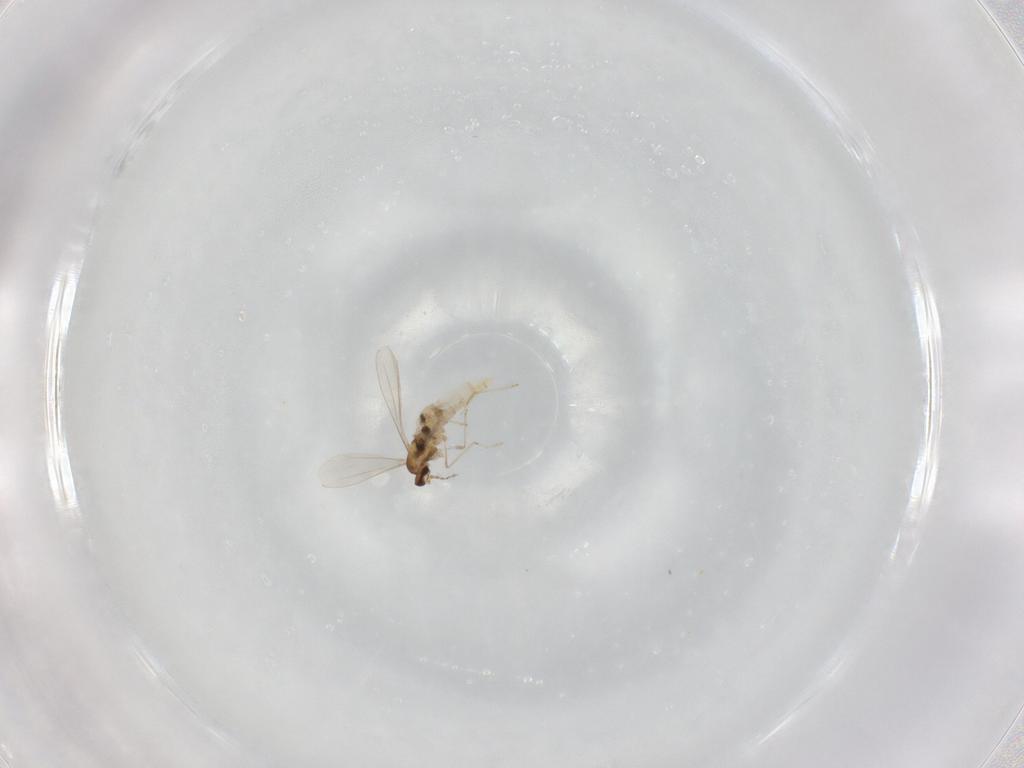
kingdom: Animalia
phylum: Arthropoda
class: Insecta
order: Diptera
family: Cecidomyiidae
